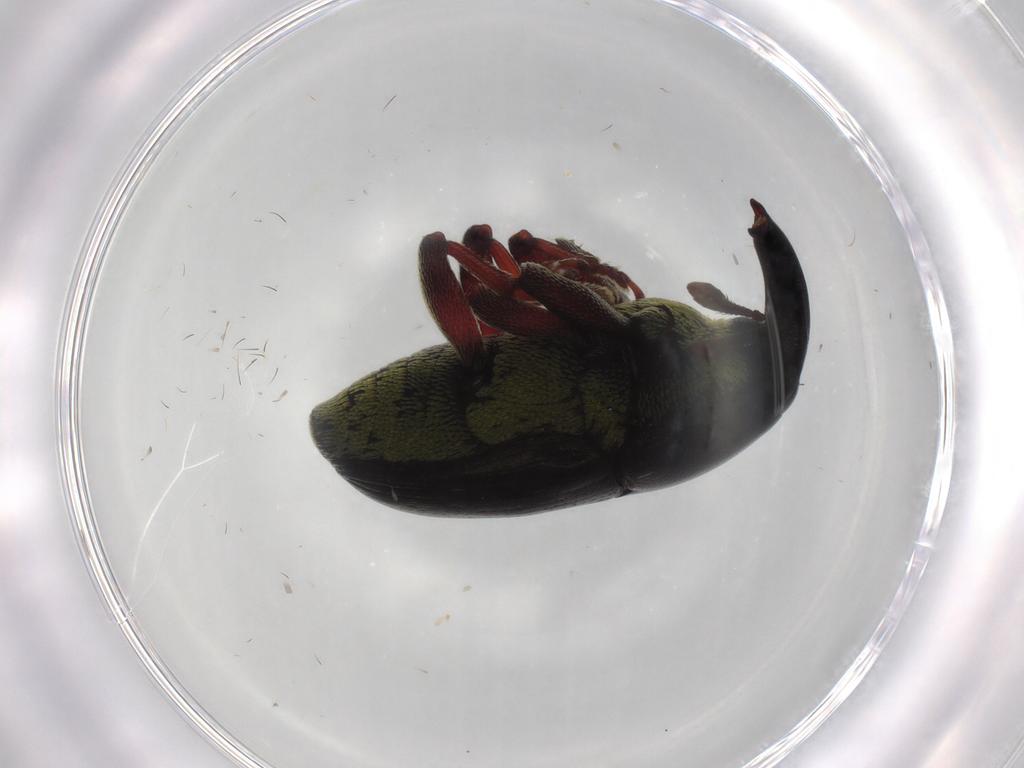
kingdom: Animalia
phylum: Arthropoda
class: Insecta
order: Coleoptera
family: Curculionidae
